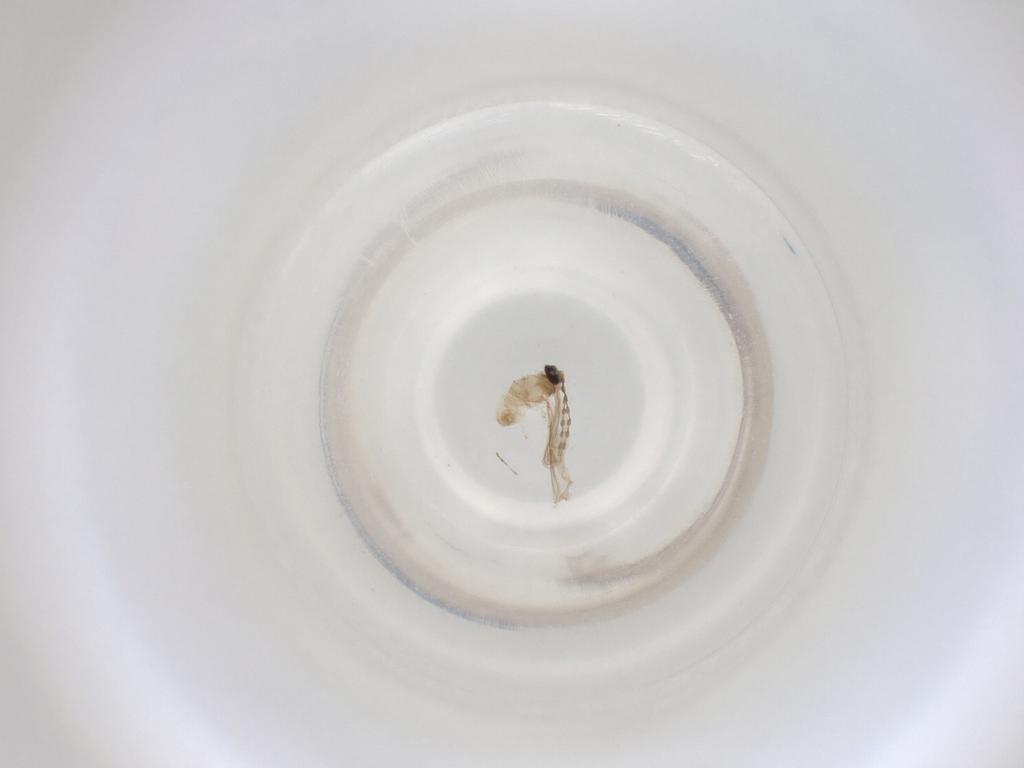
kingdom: Animalia
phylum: Arthropoda
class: Insecta
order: Diptera
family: Cecidomyiidae
